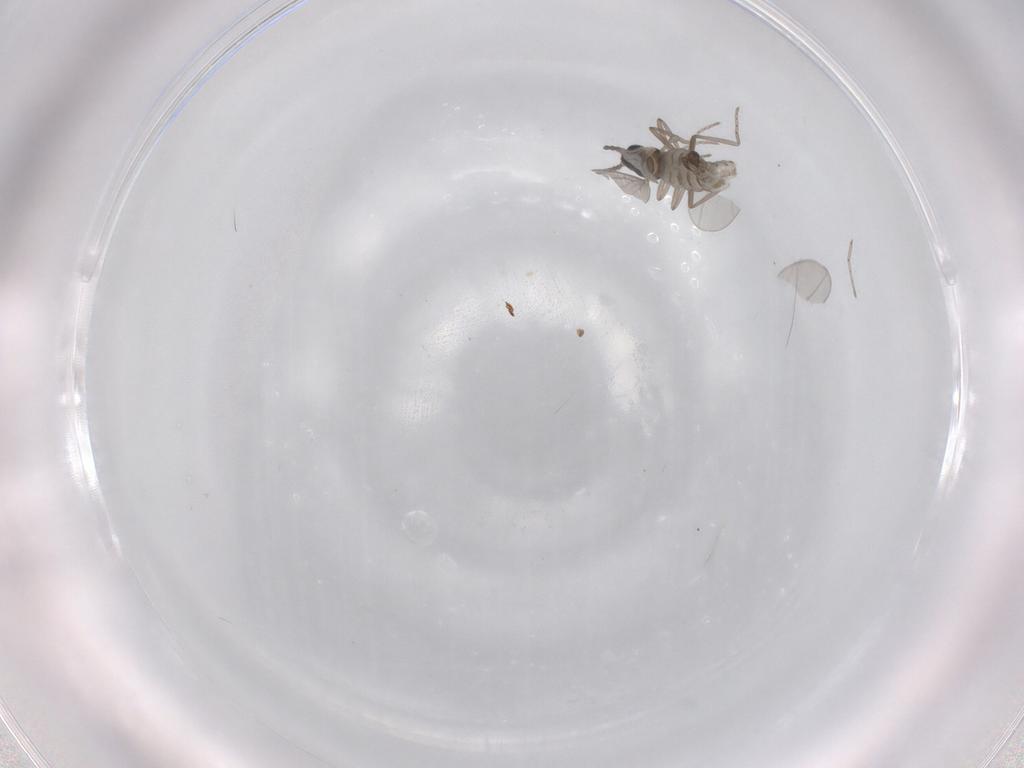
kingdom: Animalia
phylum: Arthropoda
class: Insecta
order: Diptera
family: Cecidomyiidae
